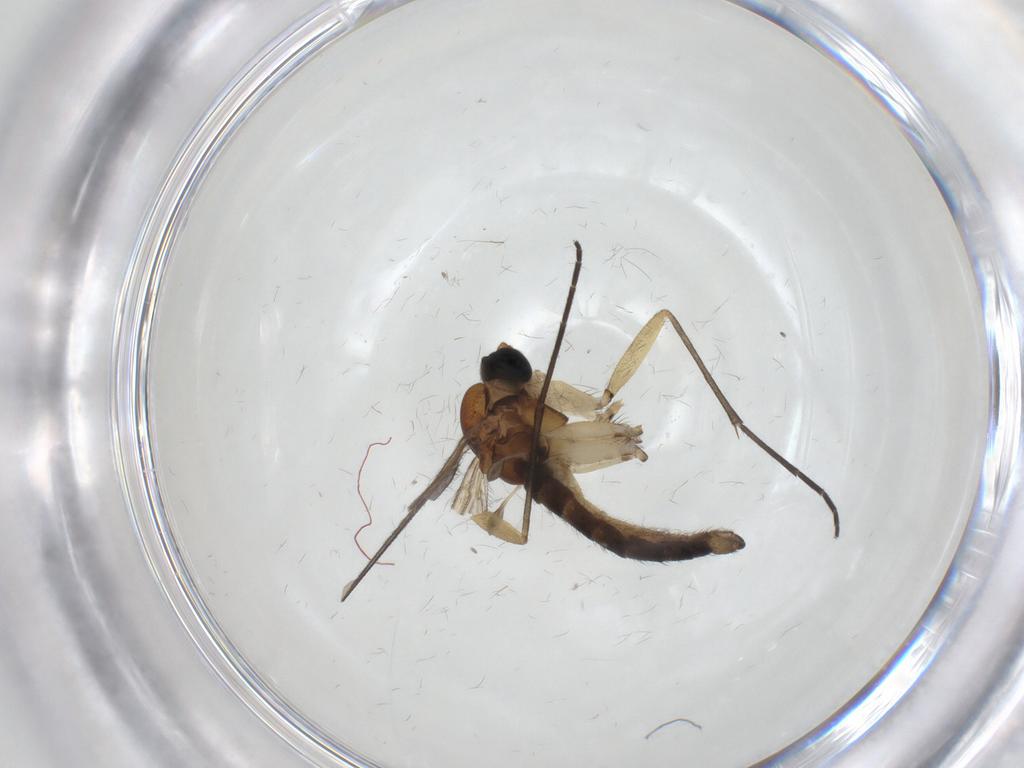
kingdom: Animalia
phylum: Arthropoda
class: Insecta
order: Diptera
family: Sciaridae
